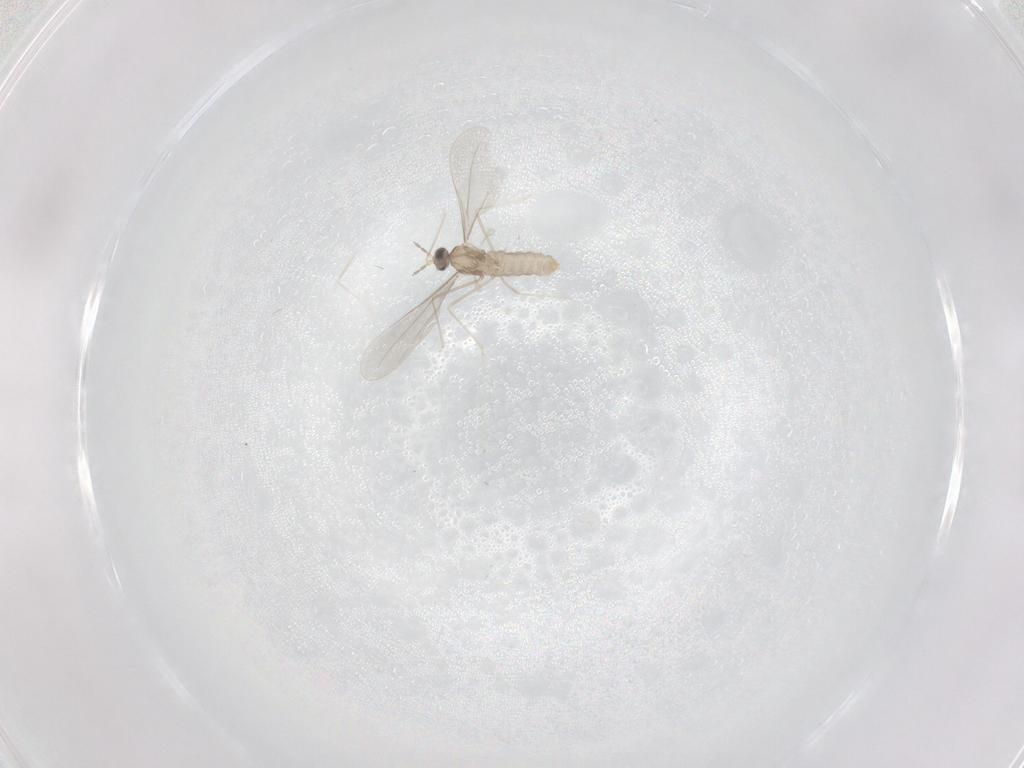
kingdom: Animalia
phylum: Arthropoda
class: Insecta
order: Diptera
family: Cecidomyiidae
